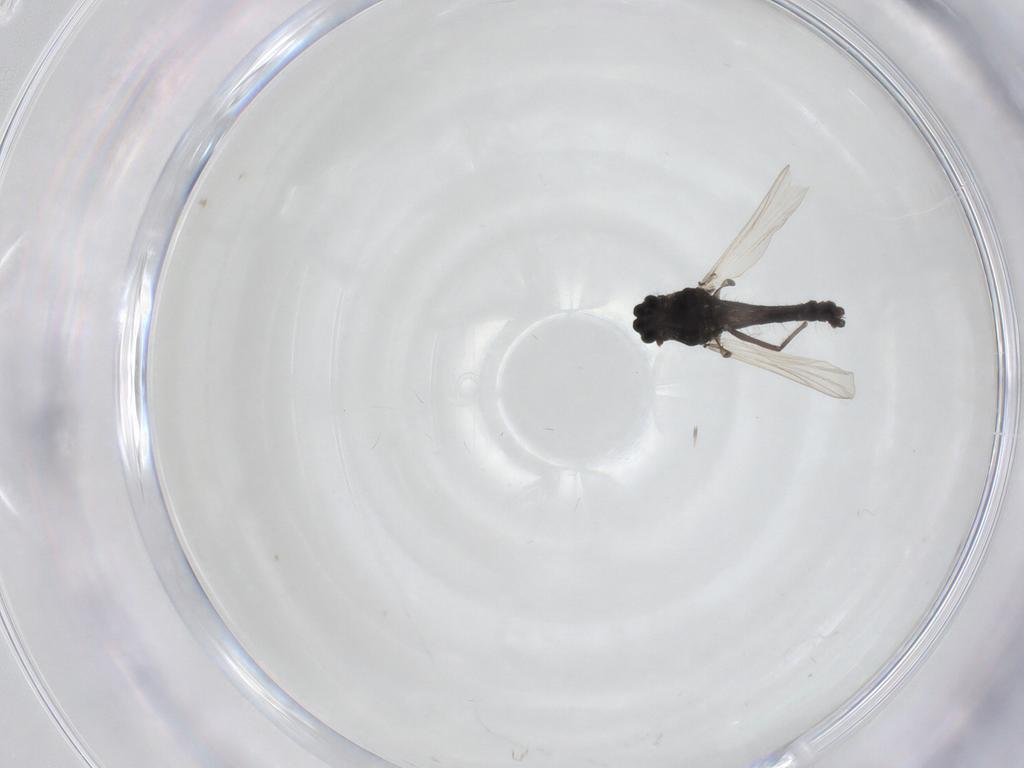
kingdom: Animalia
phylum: Arthropoda
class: Insecta
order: Diptera
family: Chironomidae
